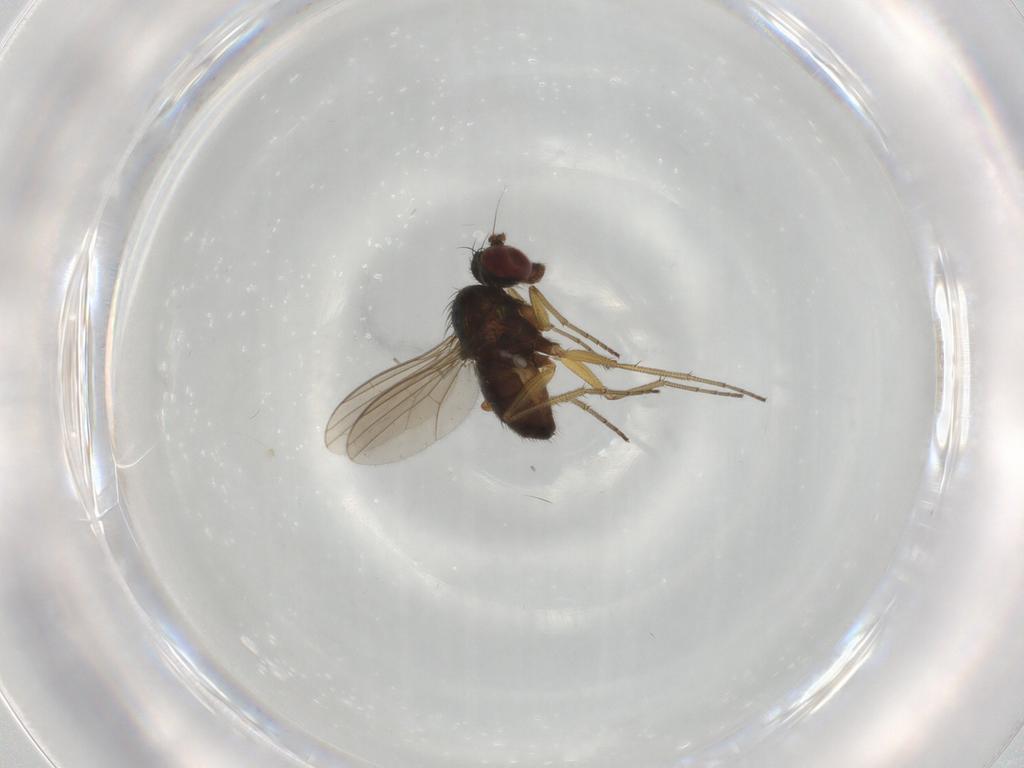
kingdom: Animalia
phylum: Arthropoda
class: Insecta
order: Diptera
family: Dolichopodidae
